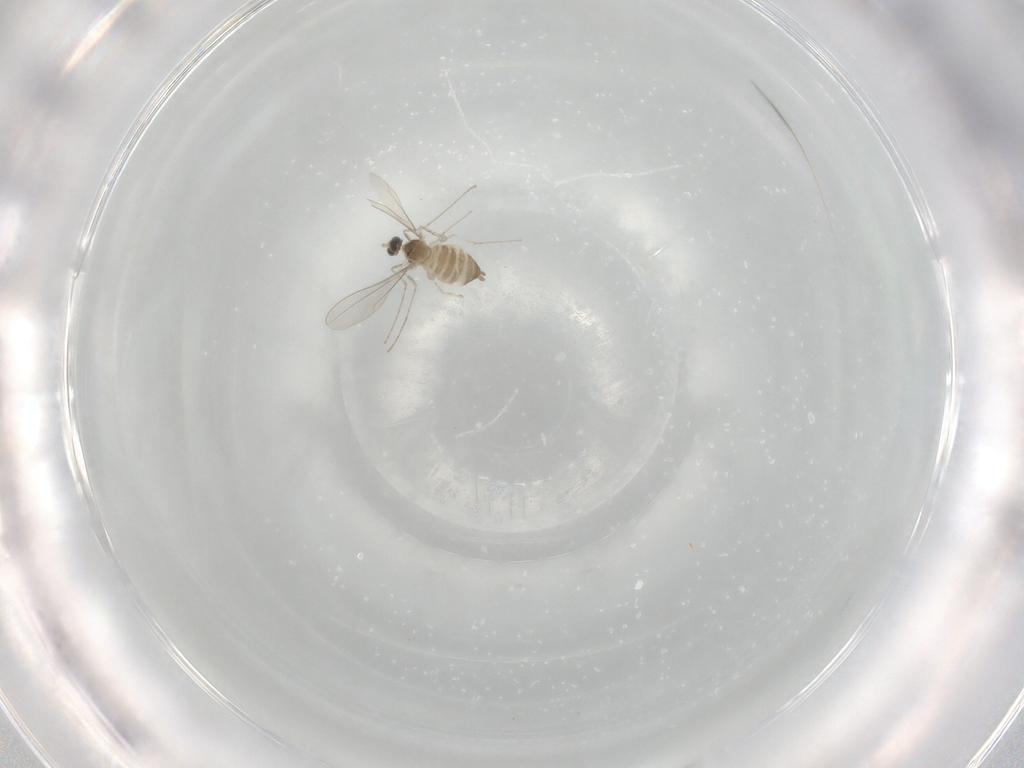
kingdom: Animalia
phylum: Arthropoda
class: Insecta
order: Diptera
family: Cecidomyiidae
